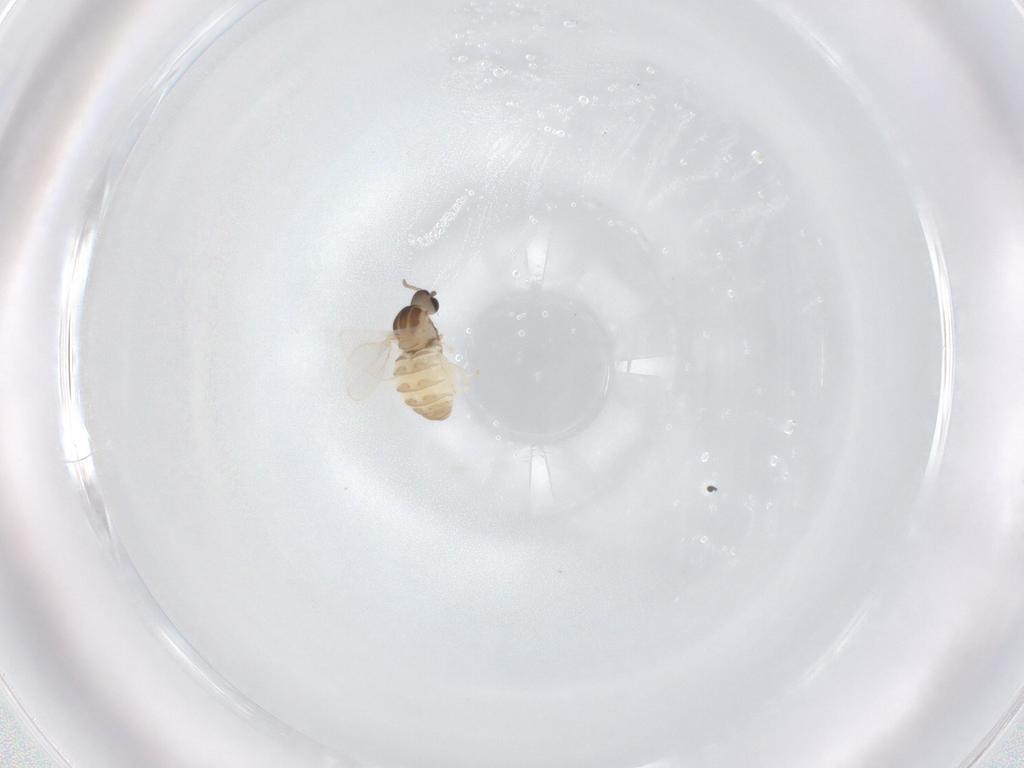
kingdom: Animalia
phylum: Arthropoda
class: Insecta
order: Diptera
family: Cecidomyiidae
